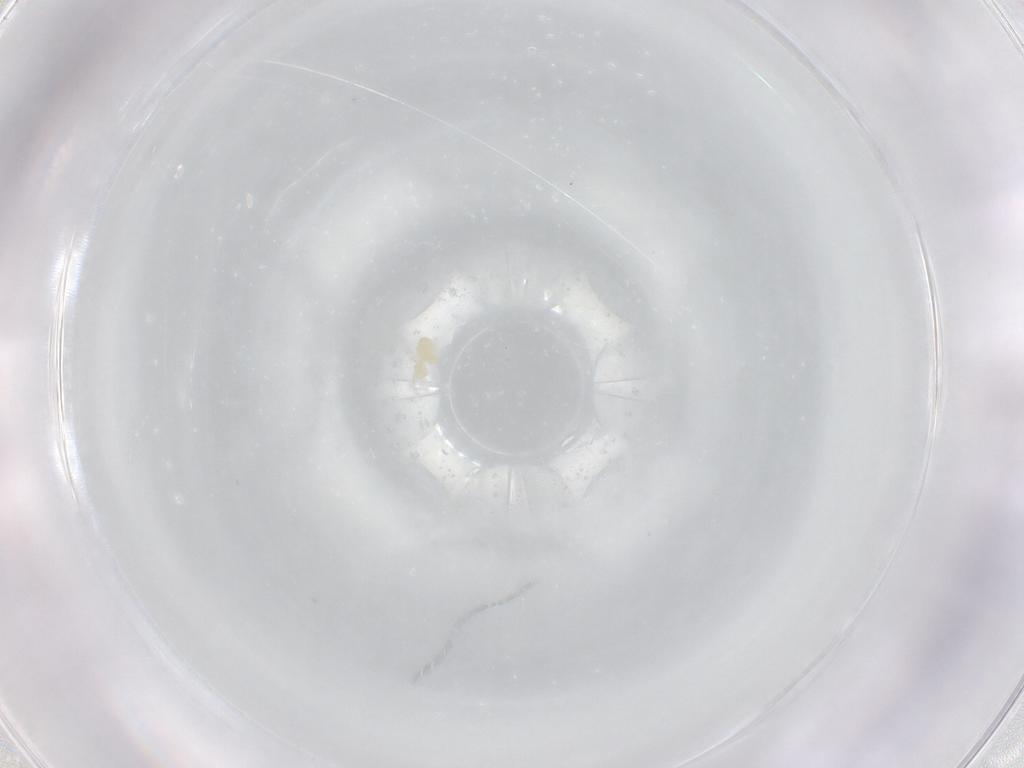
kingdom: Animalia
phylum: Arthropoda
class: Arachnida
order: Trombidiformes
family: Eupodidae
